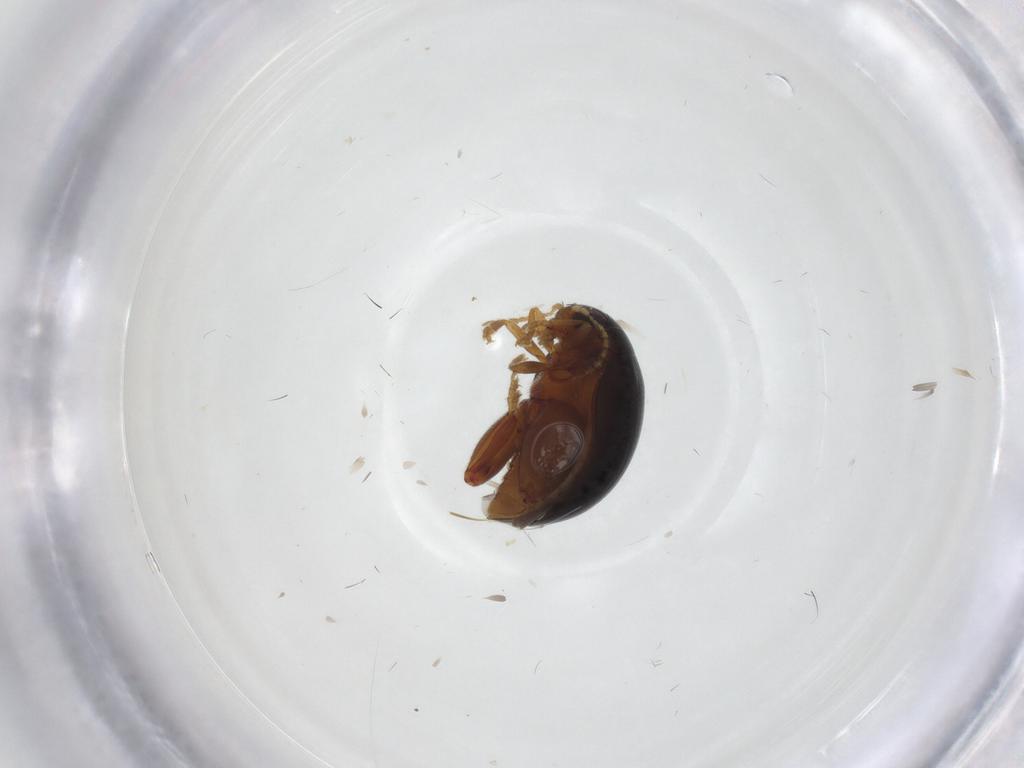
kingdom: Animalia
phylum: Arthropoda
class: Insecta
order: Coleoptera
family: Chrysomelidae
